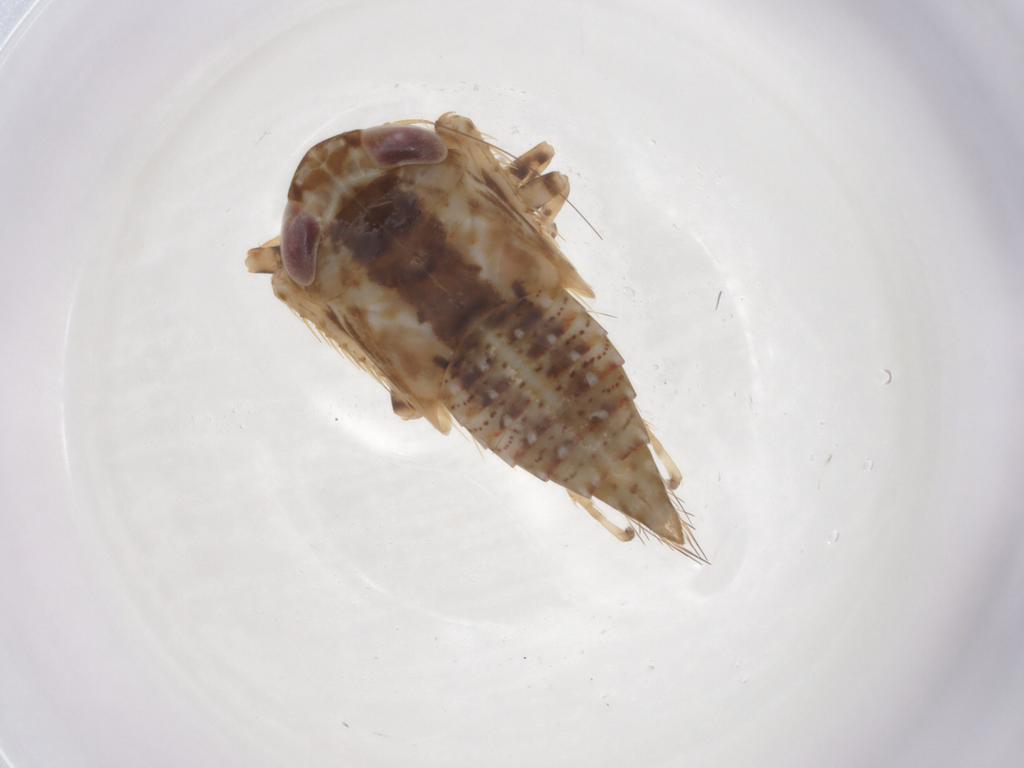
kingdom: Animalia
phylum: Arthropoda
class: Insecta
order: Hemiptera
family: Cicadellidae
